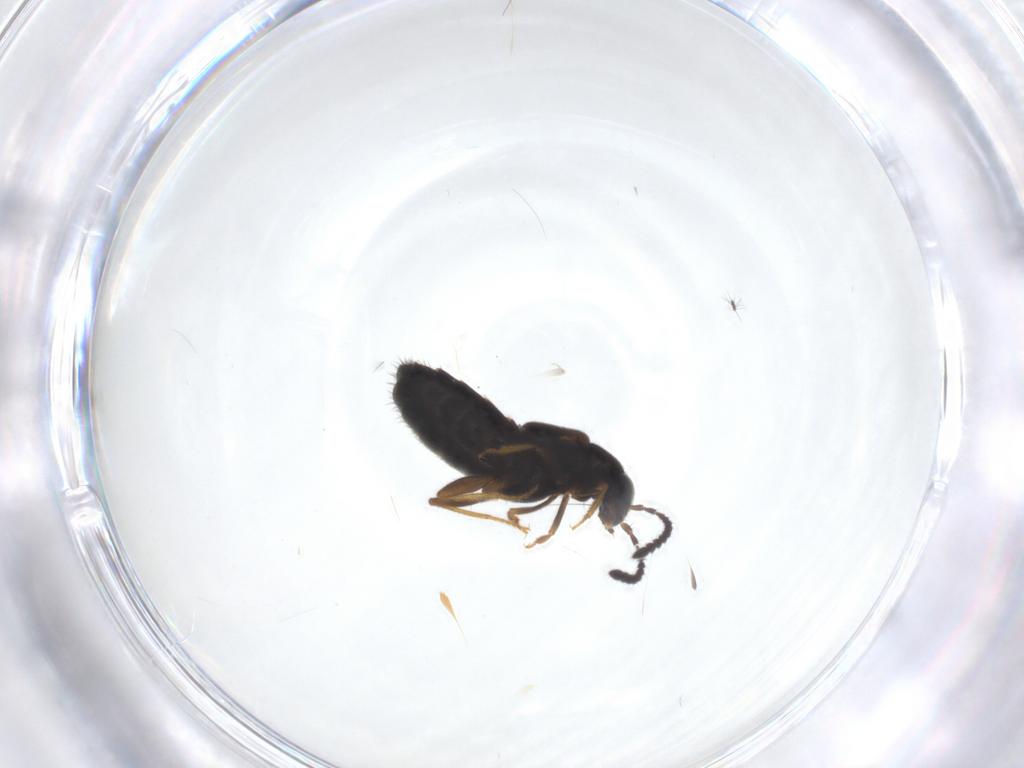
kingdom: Animalia
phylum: Arthropoda
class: Insecta
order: Coleoptera
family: Staphylinidae
